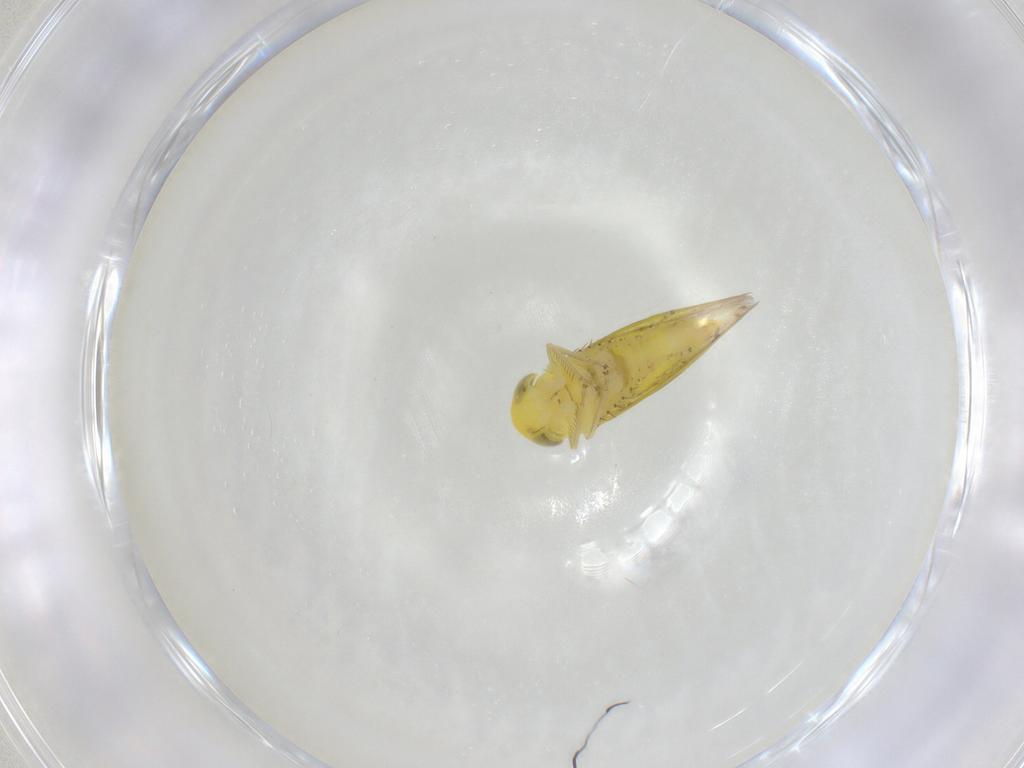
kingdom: Animalia
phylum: Arthropoda
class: Insecta
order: Hemiptera
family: Cicadellidae
